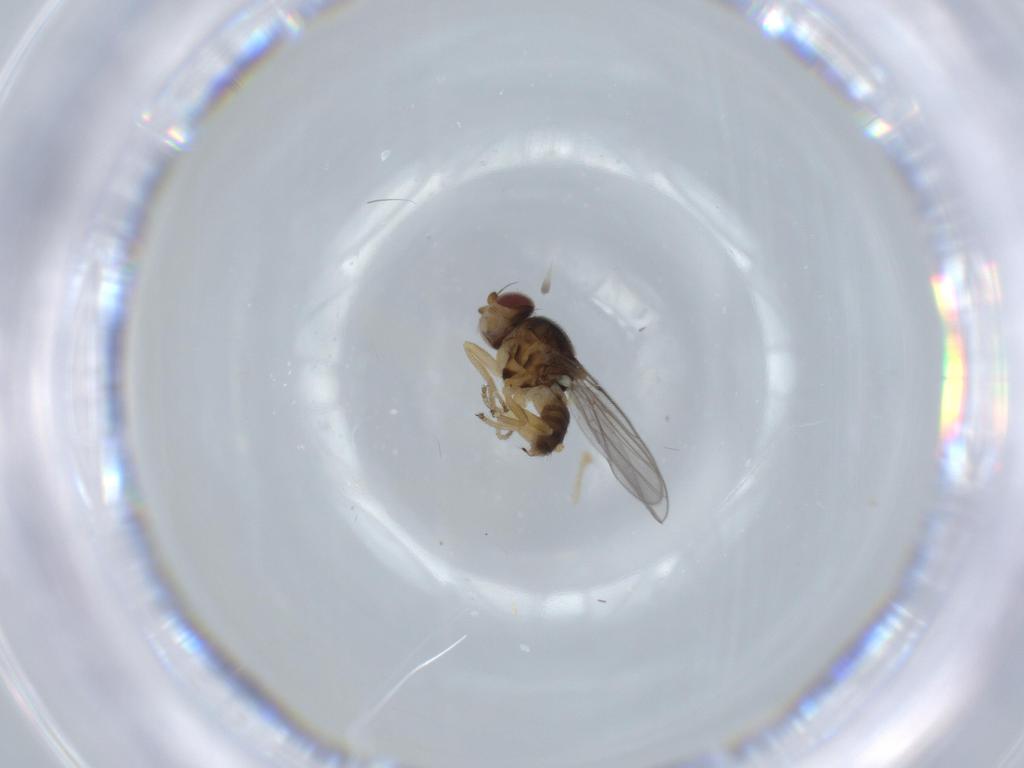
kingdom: Animalia
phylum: Arthropoda
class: Insecta
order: Diptera
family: Chloropidae
